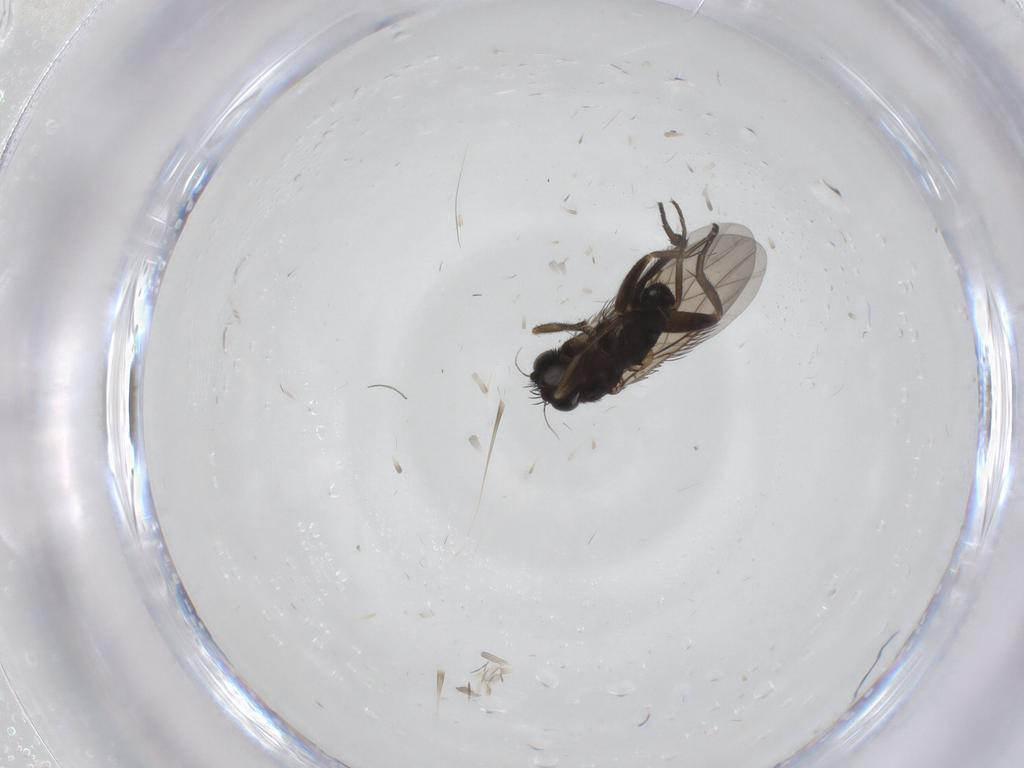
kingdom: Animalia
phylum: Arthropoda
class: Insecta
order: Diptera
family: Phoridae
